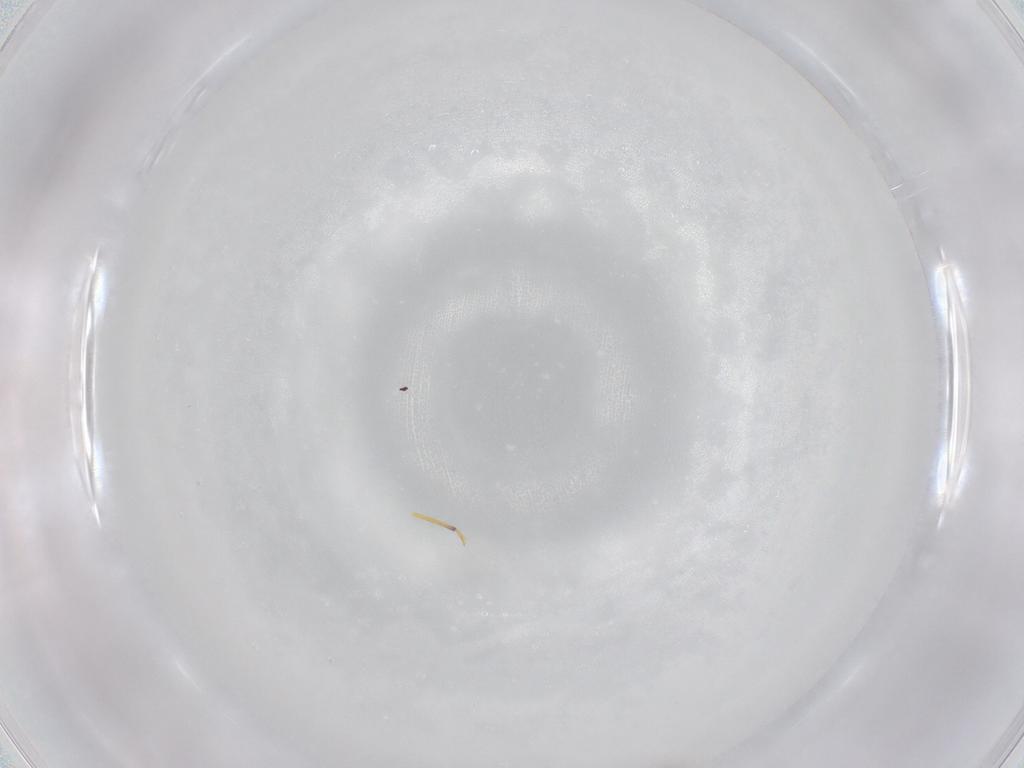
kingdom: Animalia
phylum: Arthropoda
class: Insecta
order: Diptera
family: Cecidomyiidae
